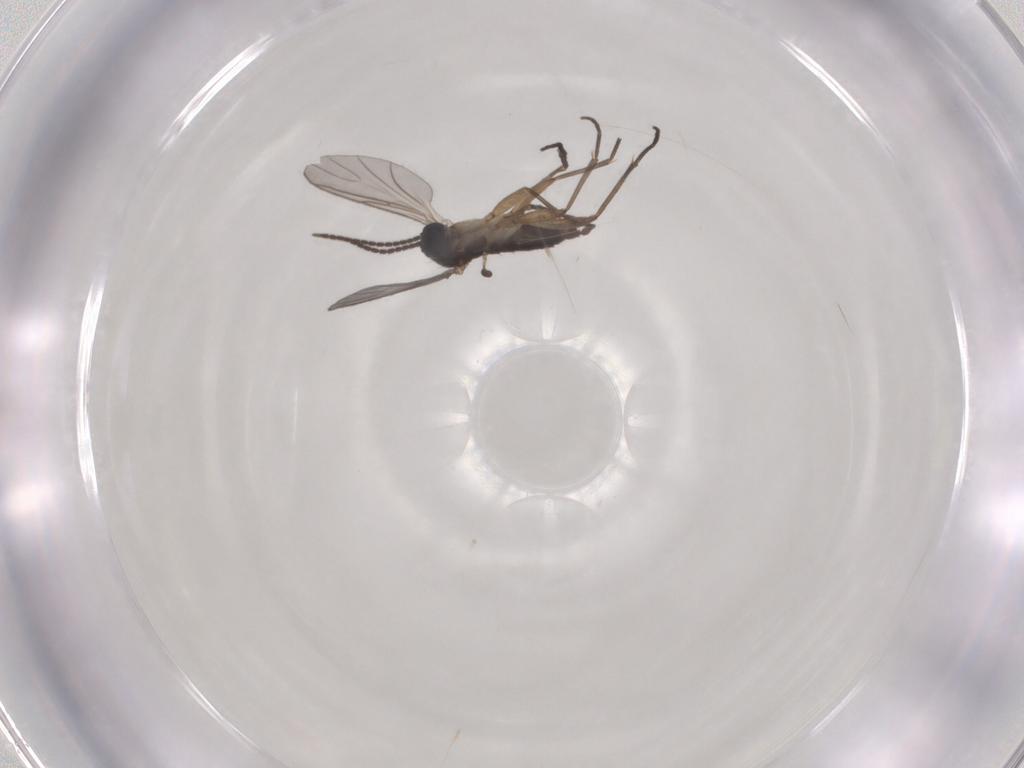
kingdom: Animalia
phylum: Arthropoda
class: Insecta
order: Diptera
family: Sciaridae
